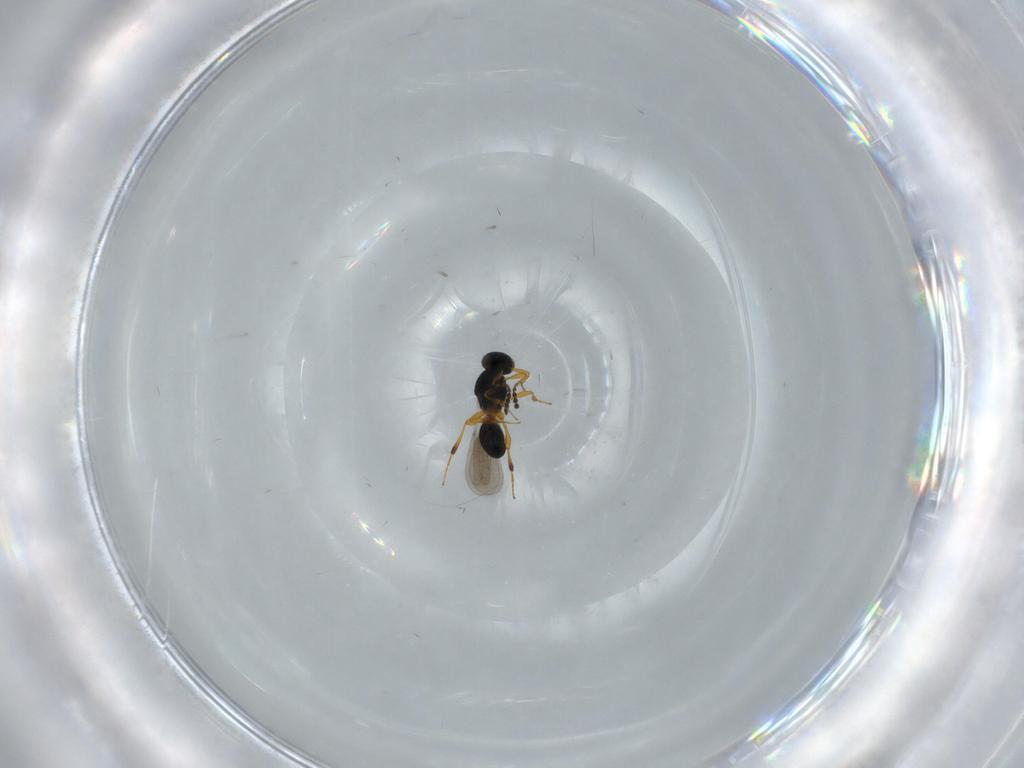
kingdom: Animalia
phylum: Arthropoda
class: Insecta
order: Hymenoptera
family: Platygastridae
